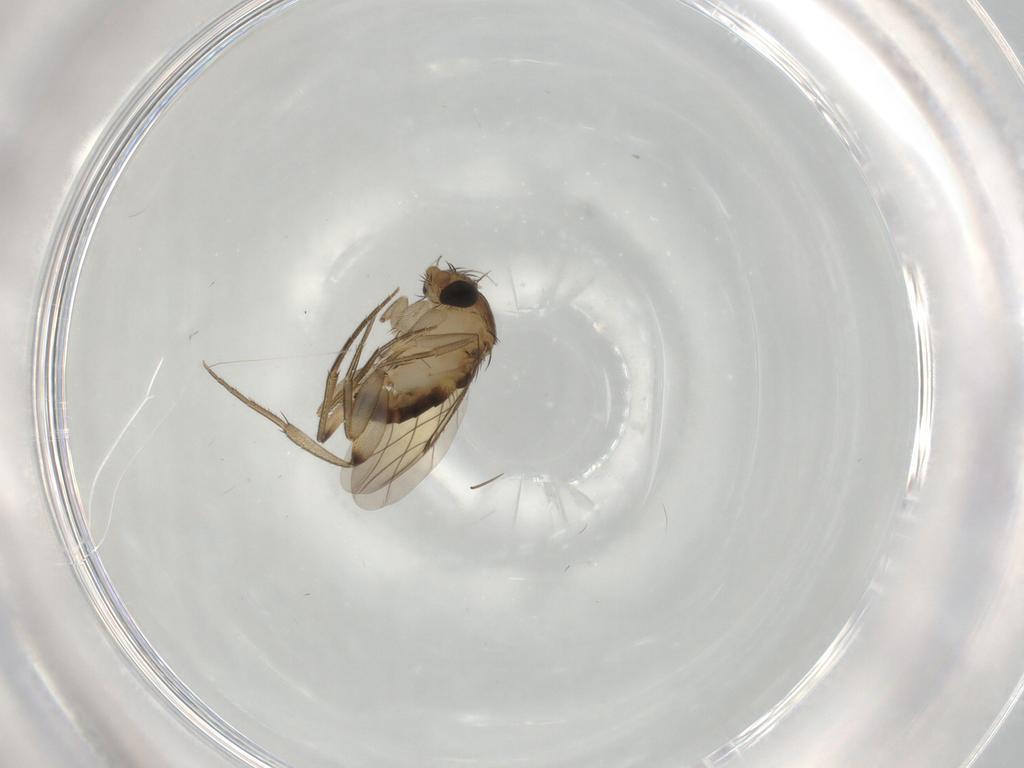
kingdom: Animalia
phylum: Arthropoda
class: Insecta
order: Diptera
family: Phoridae
